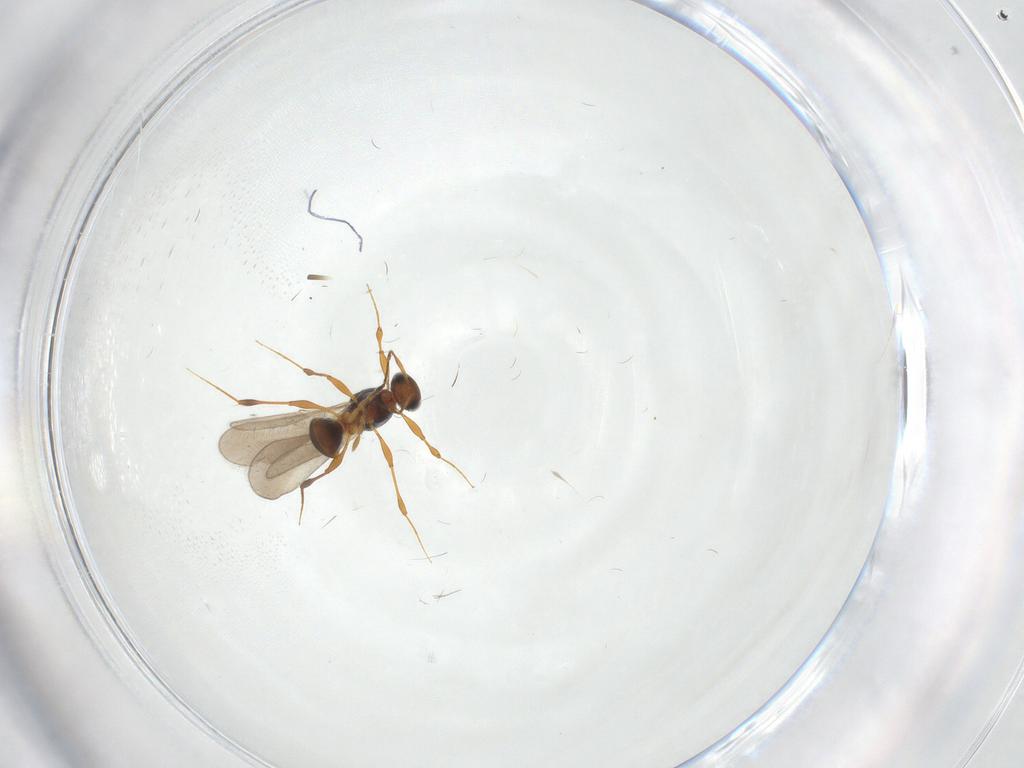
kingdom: Animalia
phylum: Arthropoda
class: Insecta
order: Hymenoptera
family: Platygastridae
